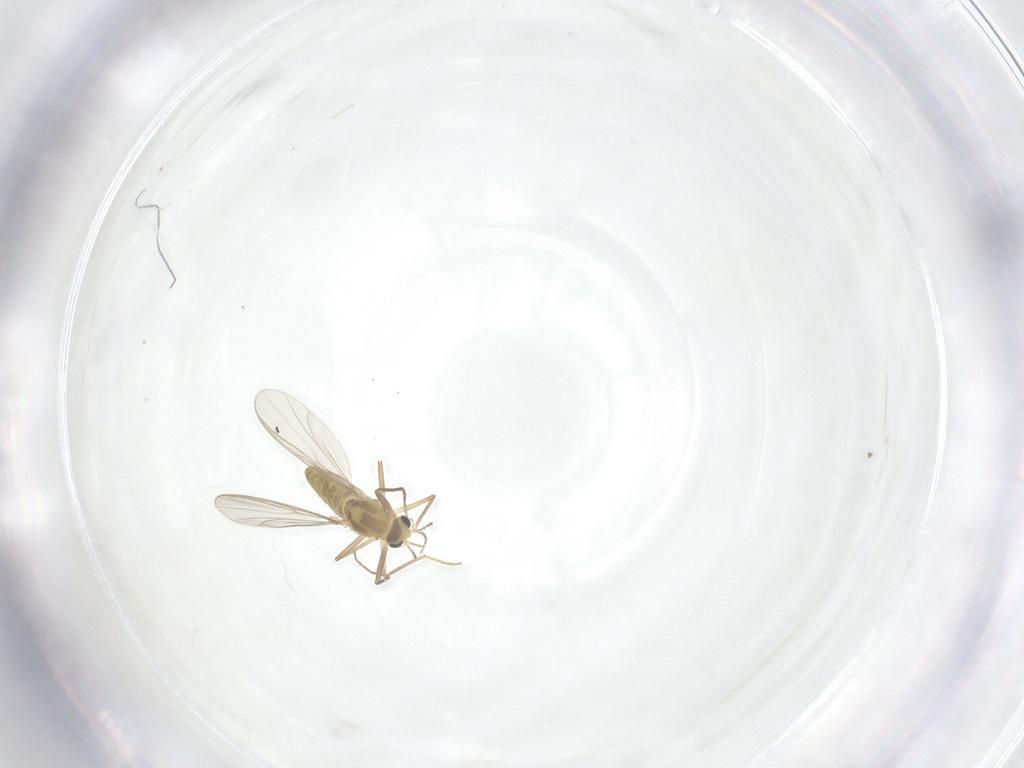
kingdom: Animalia
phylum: Arthropoda
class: Insecta
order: Diptera
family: Chironomidae
